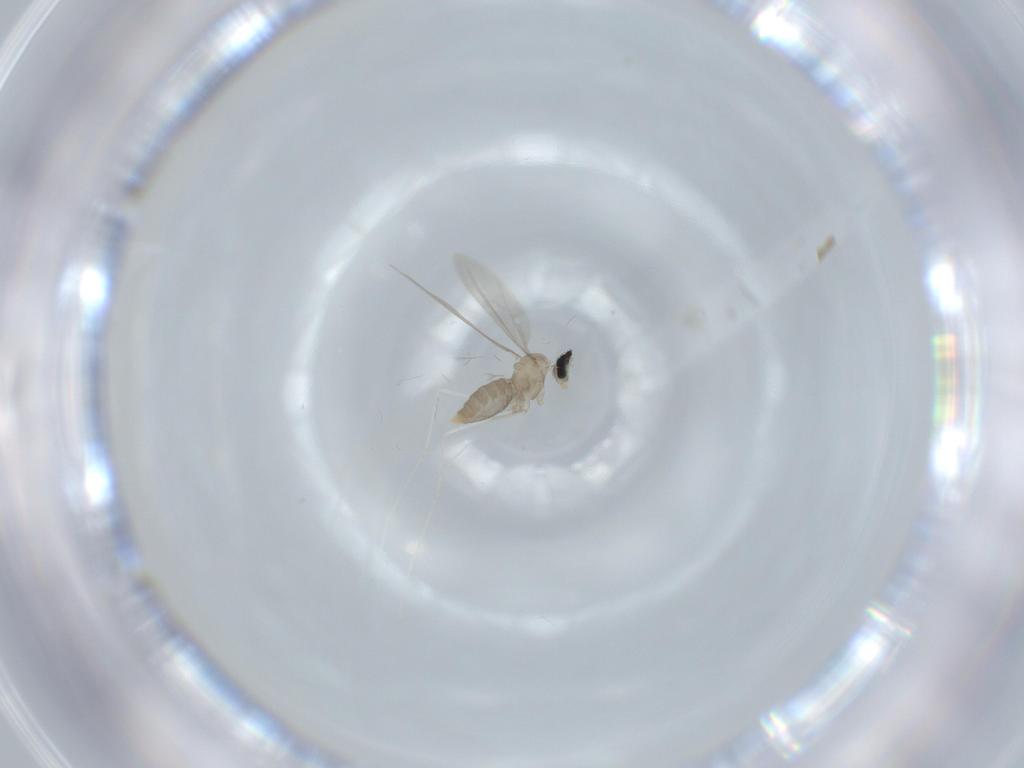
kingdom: Animalia
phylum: Arthropoda
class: Insecta
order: Diptera
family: Cecidomyiidae
